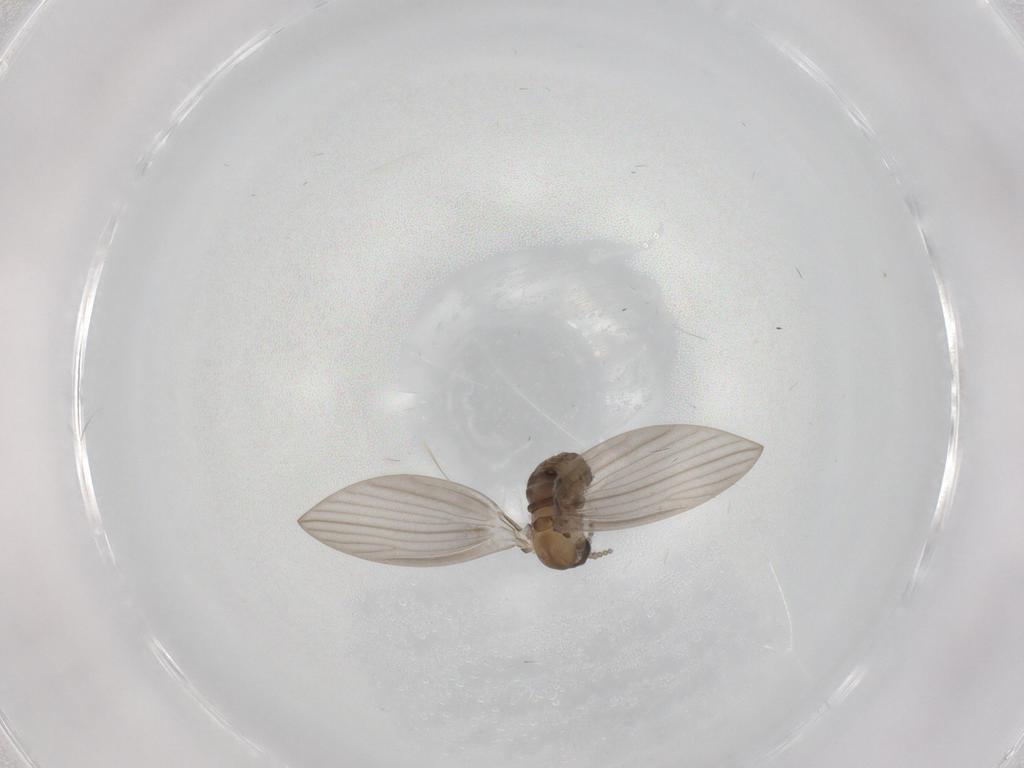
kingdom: Animalia
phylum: Arthropoda
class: Insecta
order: Diptera
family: Psychodidae
